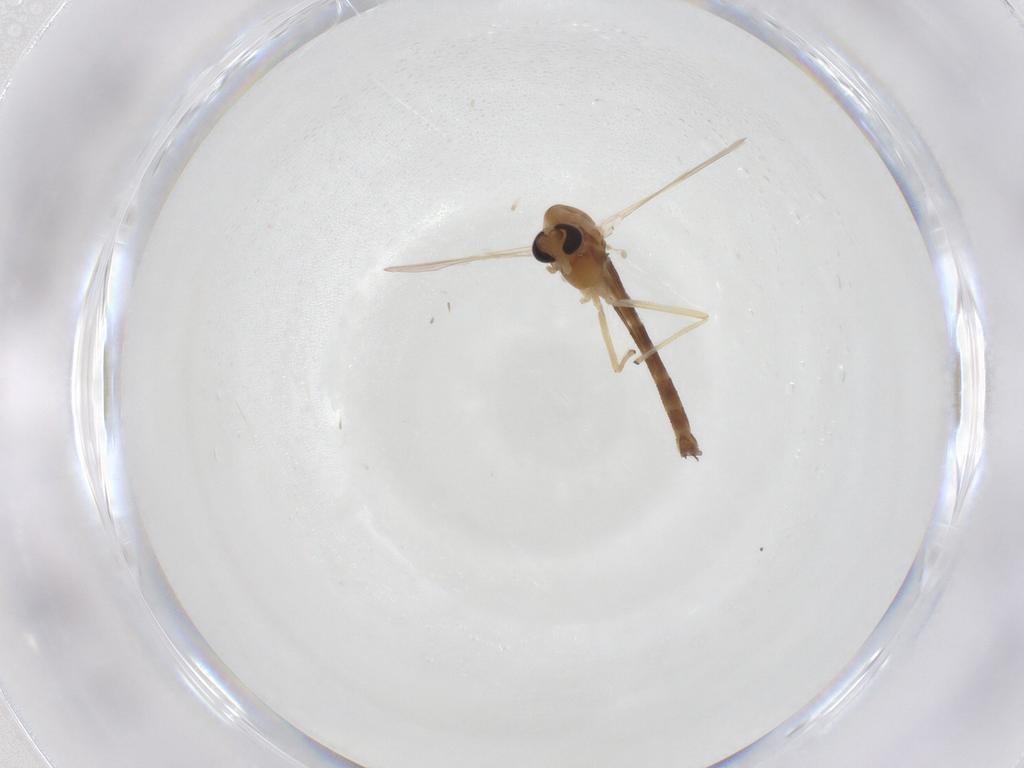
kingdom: Animalia
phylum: Arthropoda
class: Insecta
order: Diptera
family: Chironomidae
